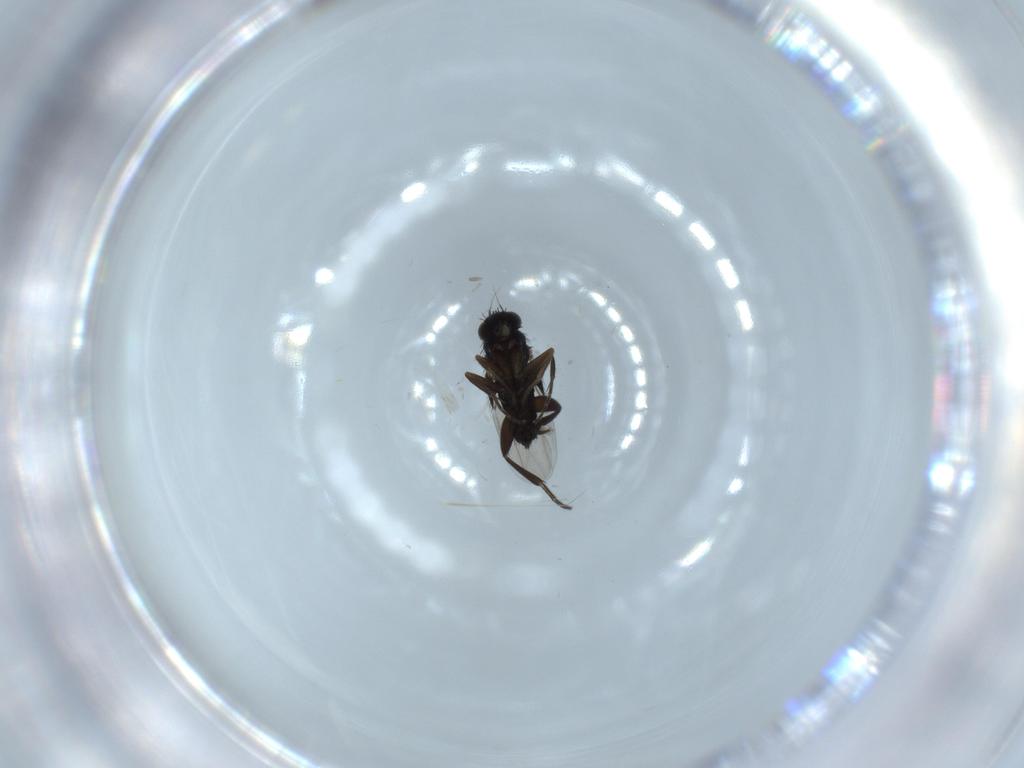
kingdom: Animalia
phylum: Arthropoda
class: Insecta
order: Diptera
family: Phoridae
